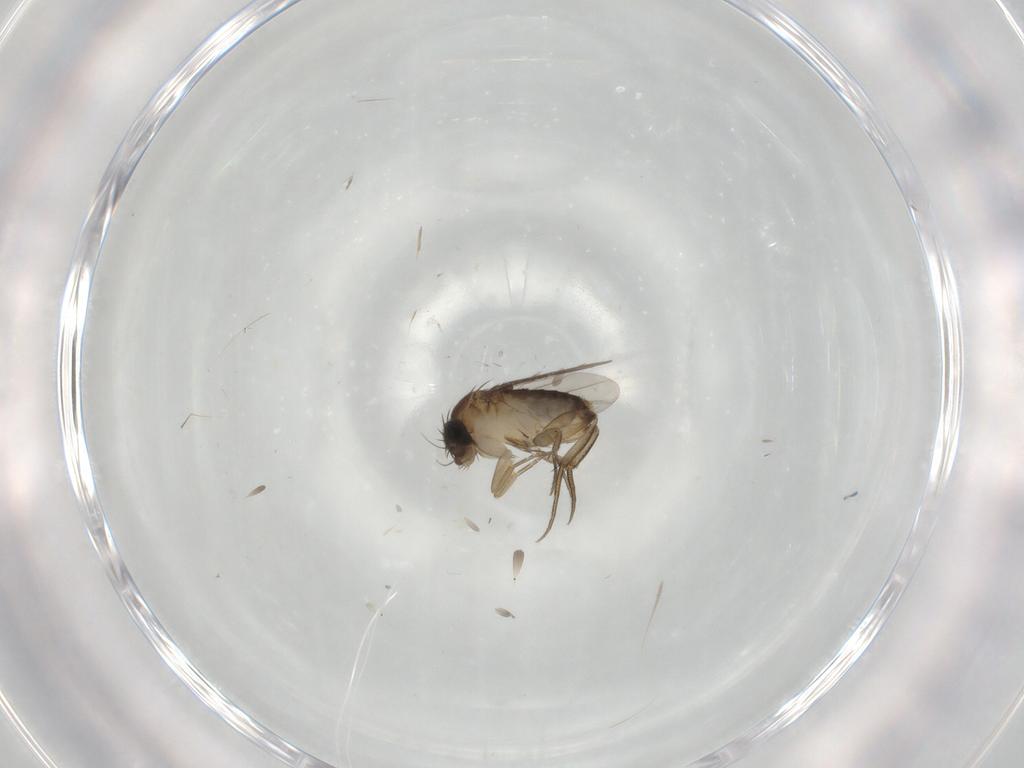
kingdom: Animalia
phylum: Arthropoda
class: Insecta
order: Diptera
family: Phoridae
